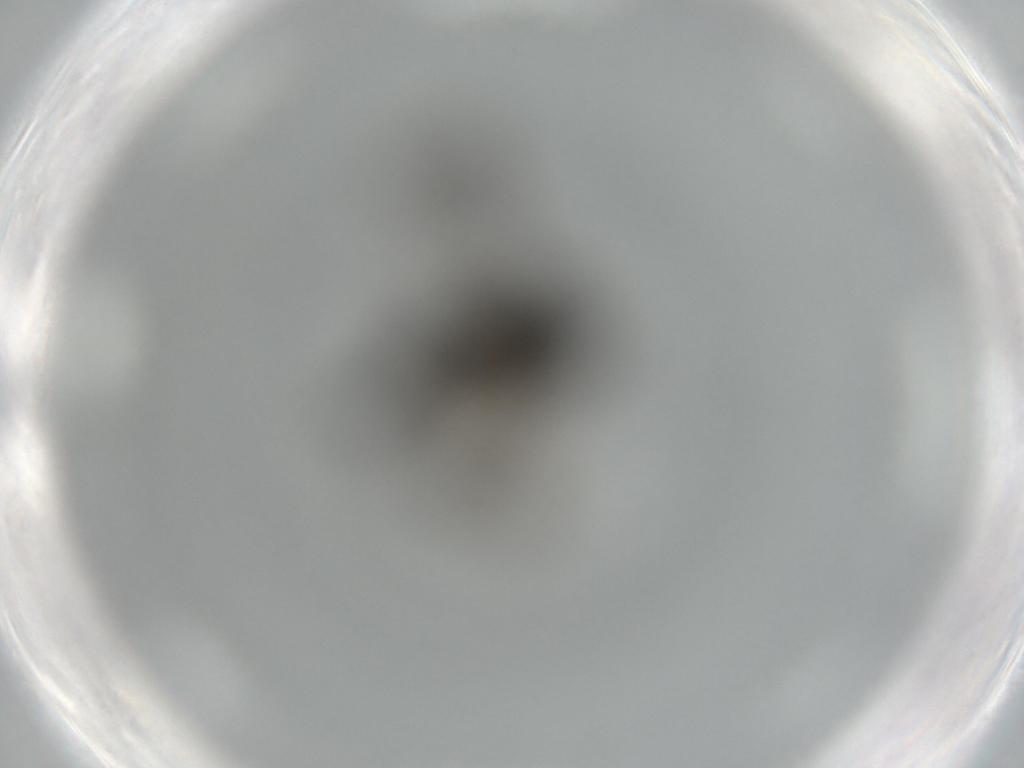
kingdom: Animalia
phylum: Arthropoda
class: Insecta
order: Diptera
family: Sciaridae
